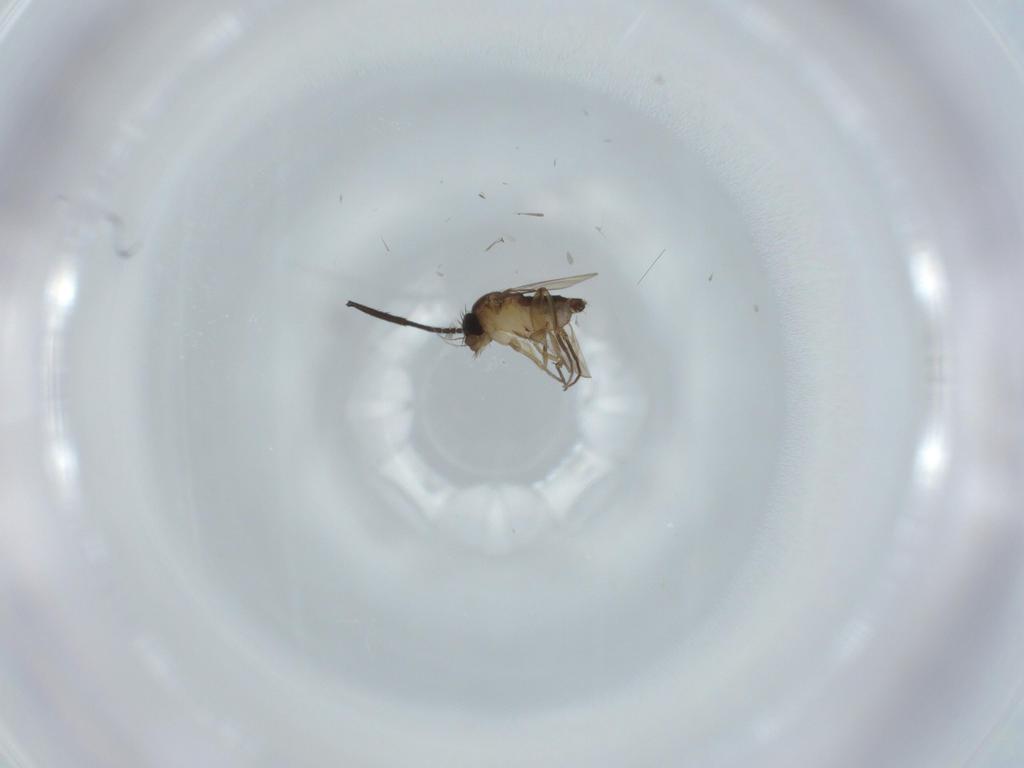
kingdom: Animalia
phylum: Arthropoda
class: Insecta
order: Diptera
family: Phoridae
